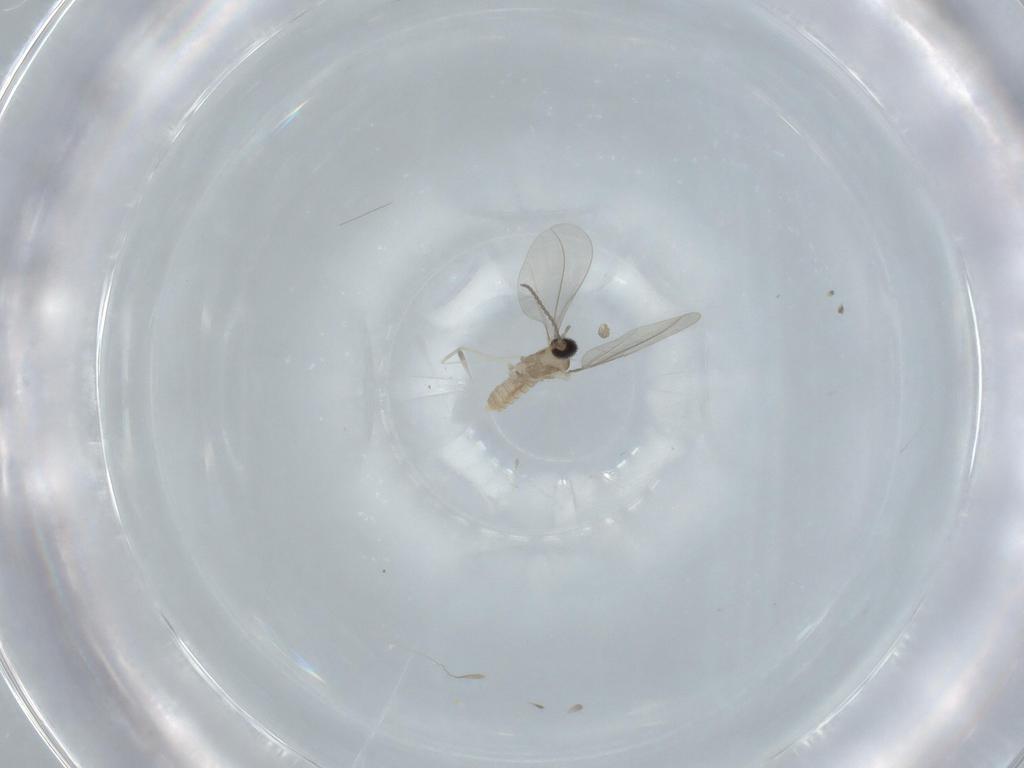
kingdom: Animalia
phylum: Arthropoda
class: Insecta
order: Diptera
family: Cecidomyiidae
